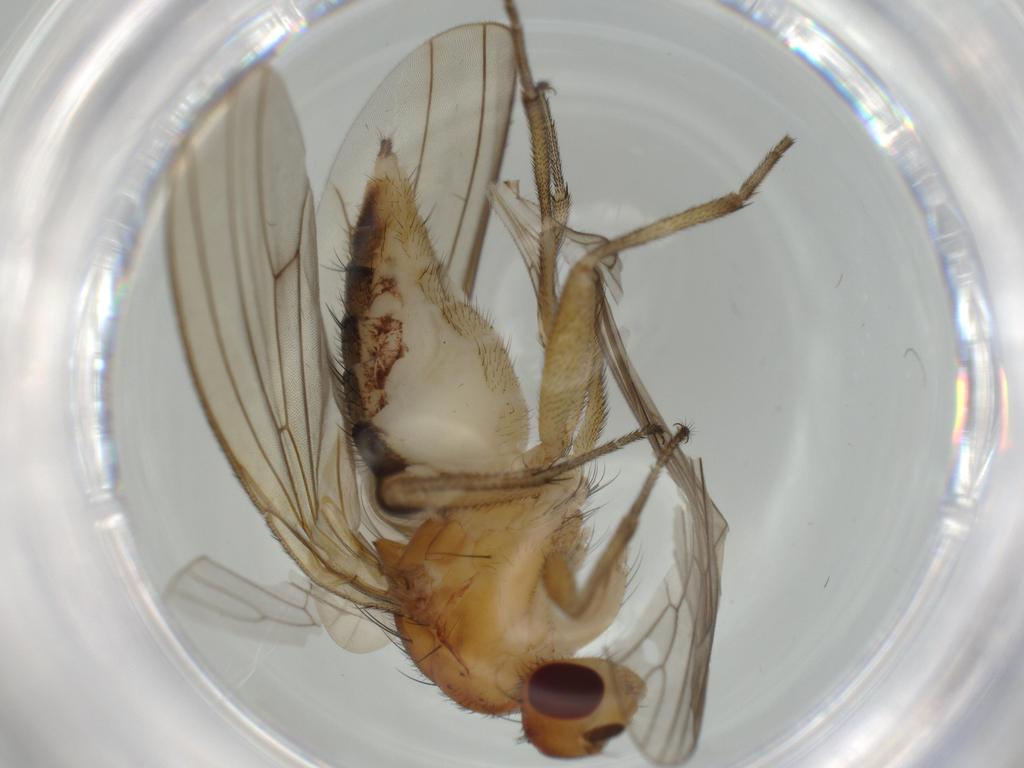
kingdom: Animalia
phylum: Arthropoda
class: Insecta
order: Diptera
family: Phoridae
